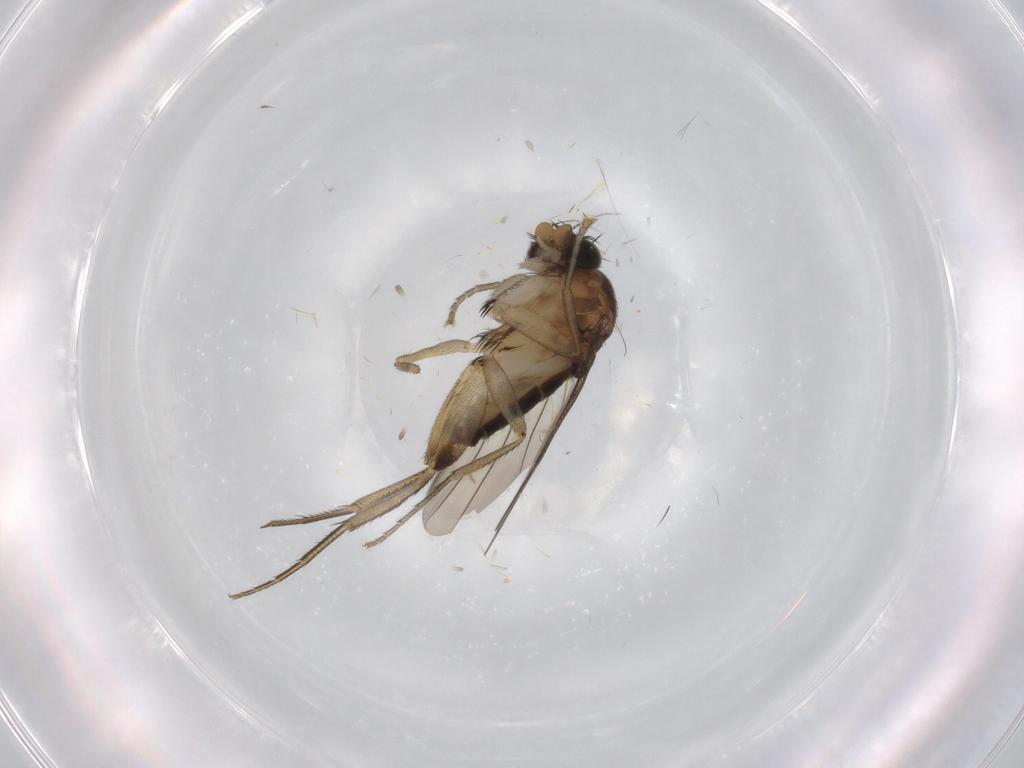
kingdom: Animalia
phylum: Arthropoda
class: Insecta
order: Diptera
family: Phoridae
